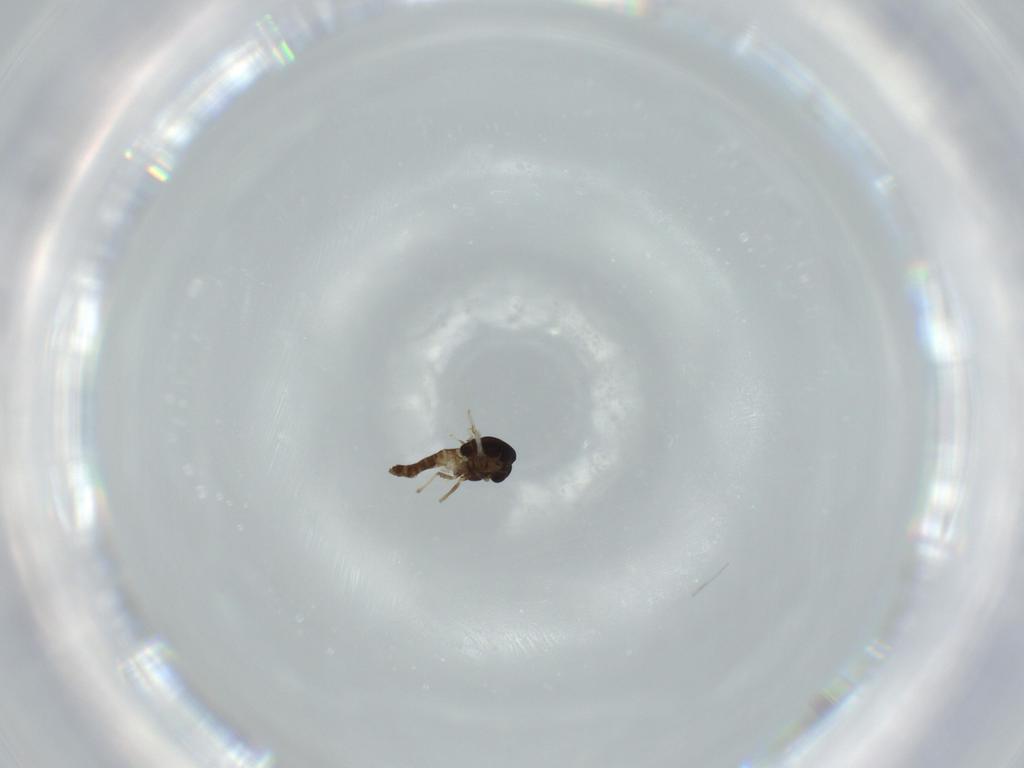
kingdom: Animalia
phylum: Arthropoda
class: Insecta
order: Diptera
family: Chironomidae
